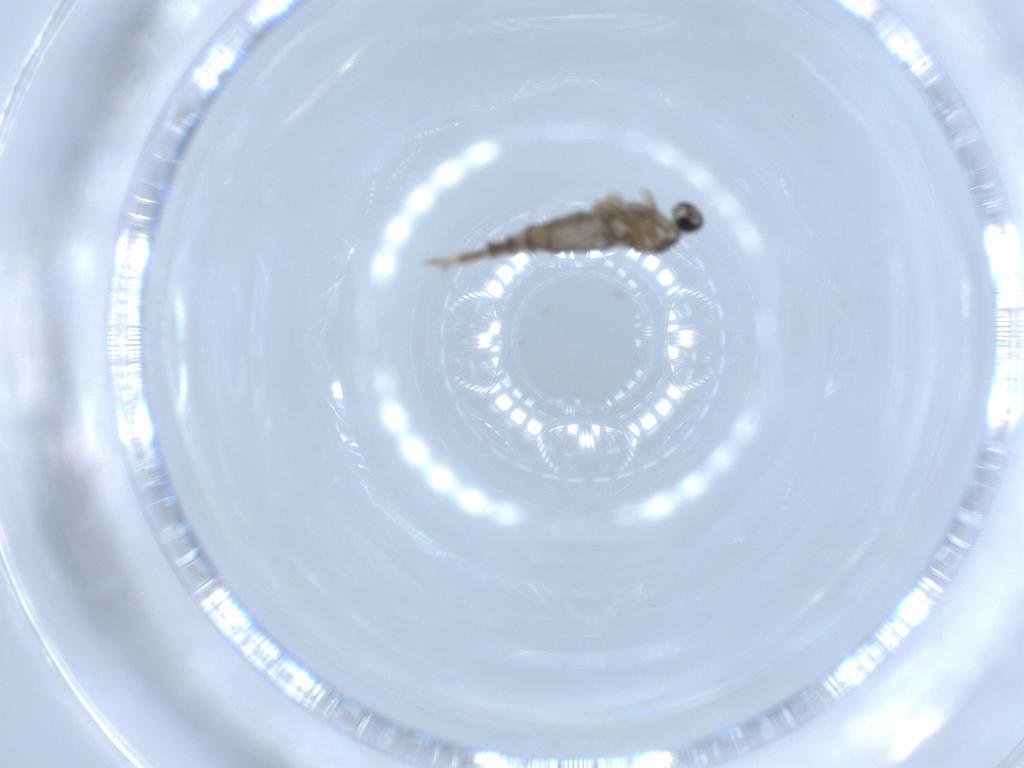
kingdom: Animalia
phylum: Arthropoda
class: Insecta
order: Diptera
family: Cecidomyiidae
